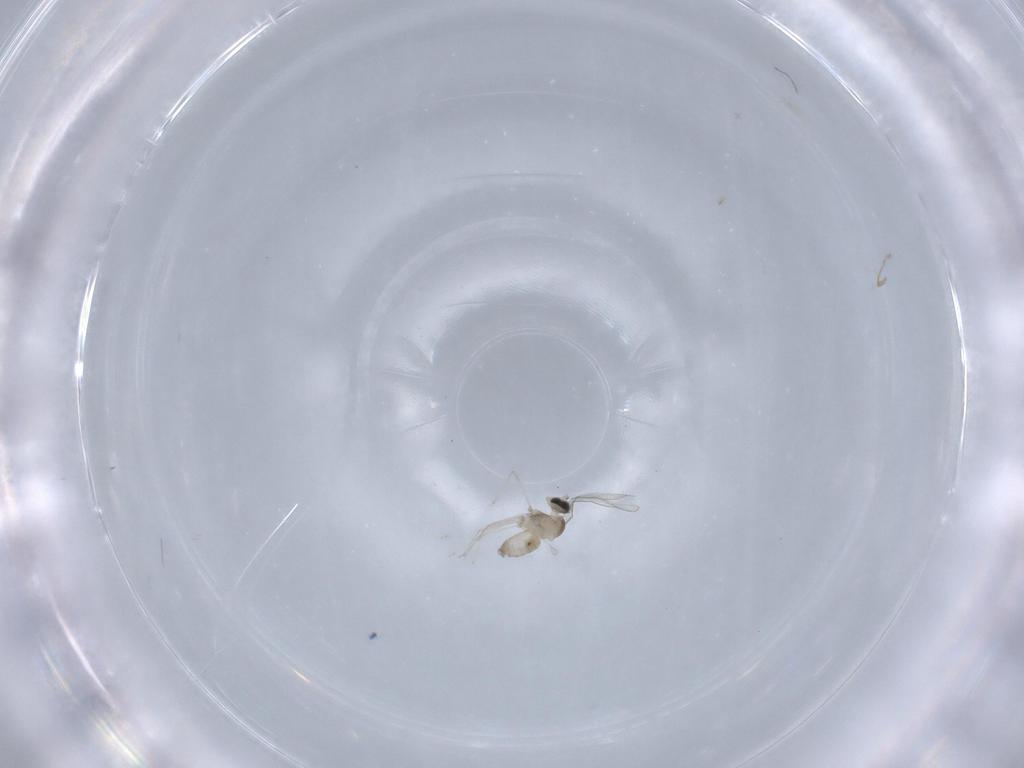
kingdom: Animalia
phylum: Arthropoda
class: Insecta
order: Diptera
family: Cecidomyiidae
